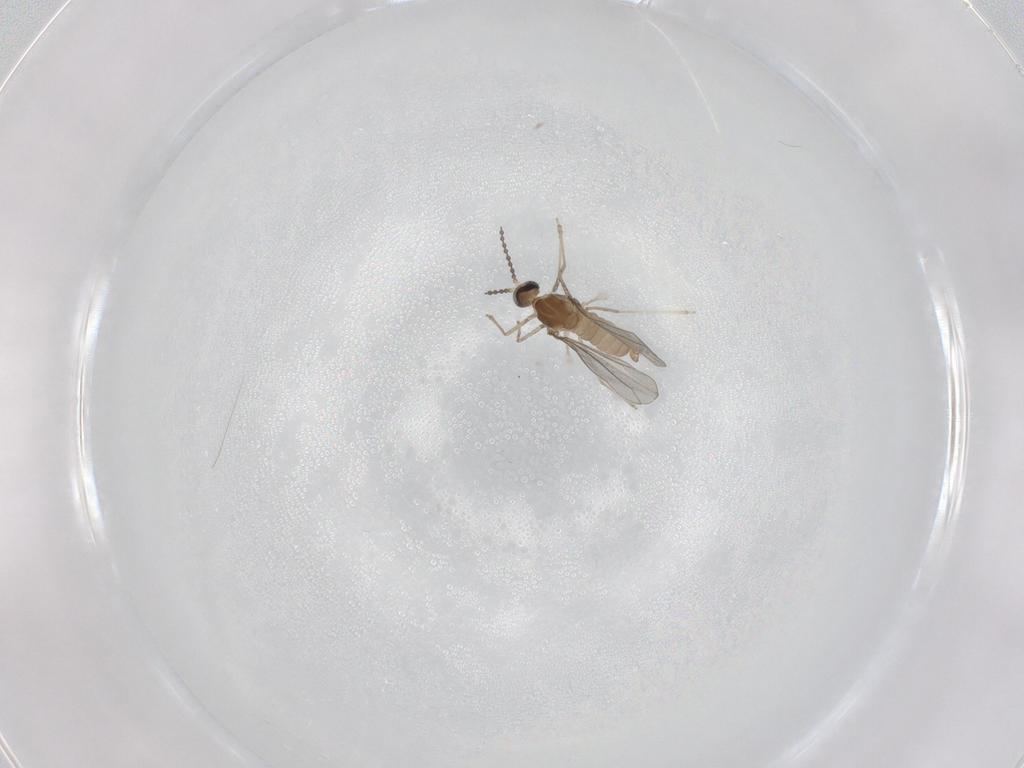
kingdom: Animalia
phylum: Arthropoda
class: Insecta
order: Diptera
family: Cecidomyiidae
